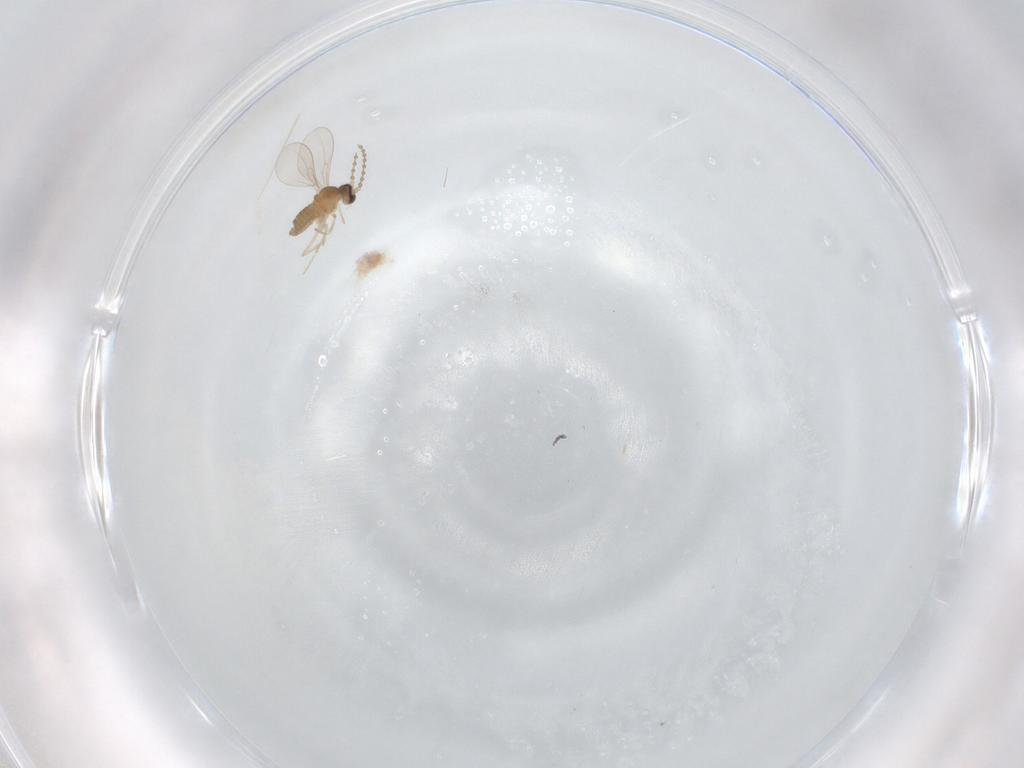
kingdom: Animalia
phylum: Arthropoda
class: Insecta
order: Diptera
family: Cecidomyiidae
